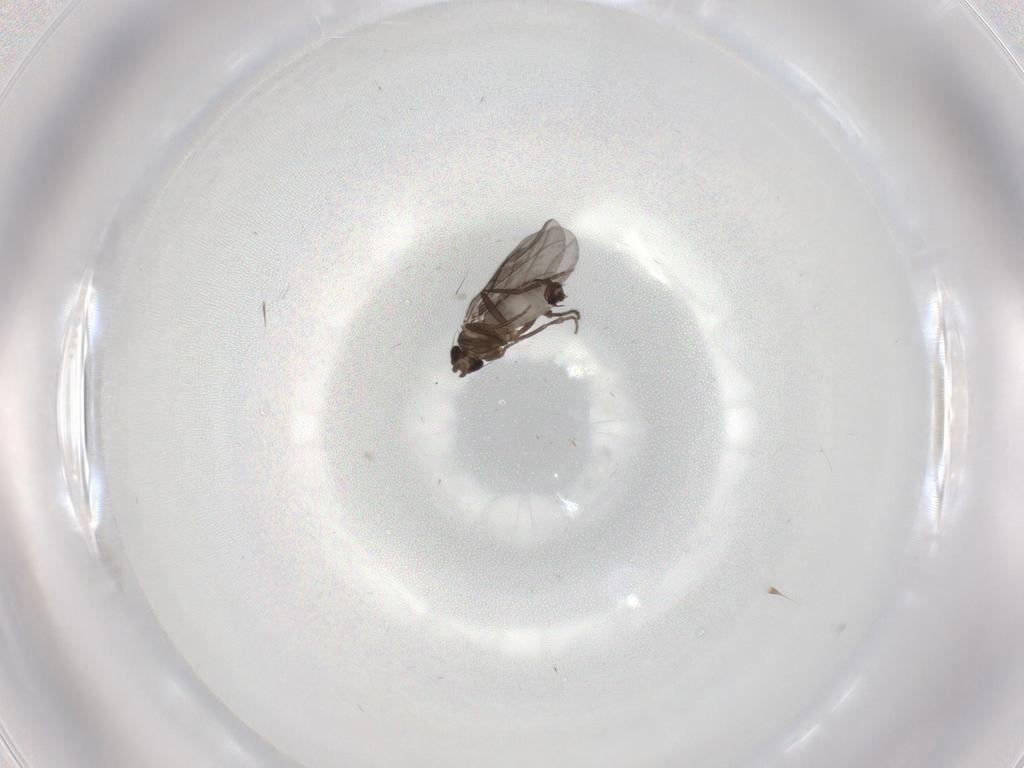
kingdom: Animalia
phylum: Arthropoda
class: Insecta
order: Diptera
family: Phoridae
